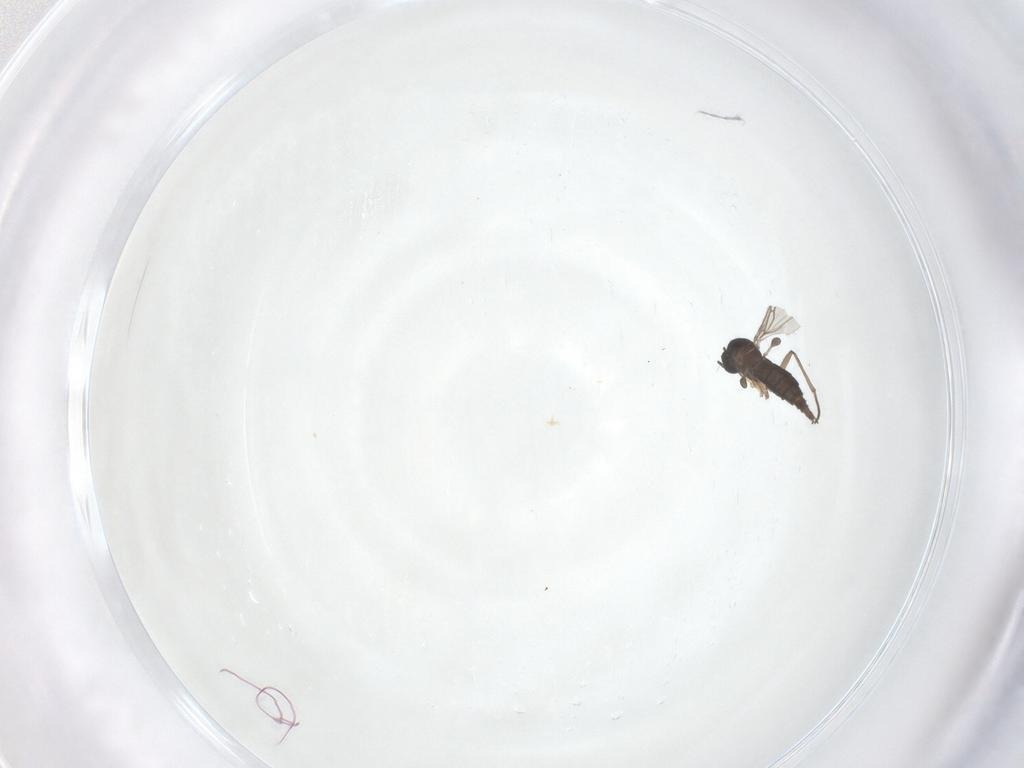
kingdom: Animalia
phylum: Arthropoda
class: Insecta
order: Diptera
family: Sciaridae
